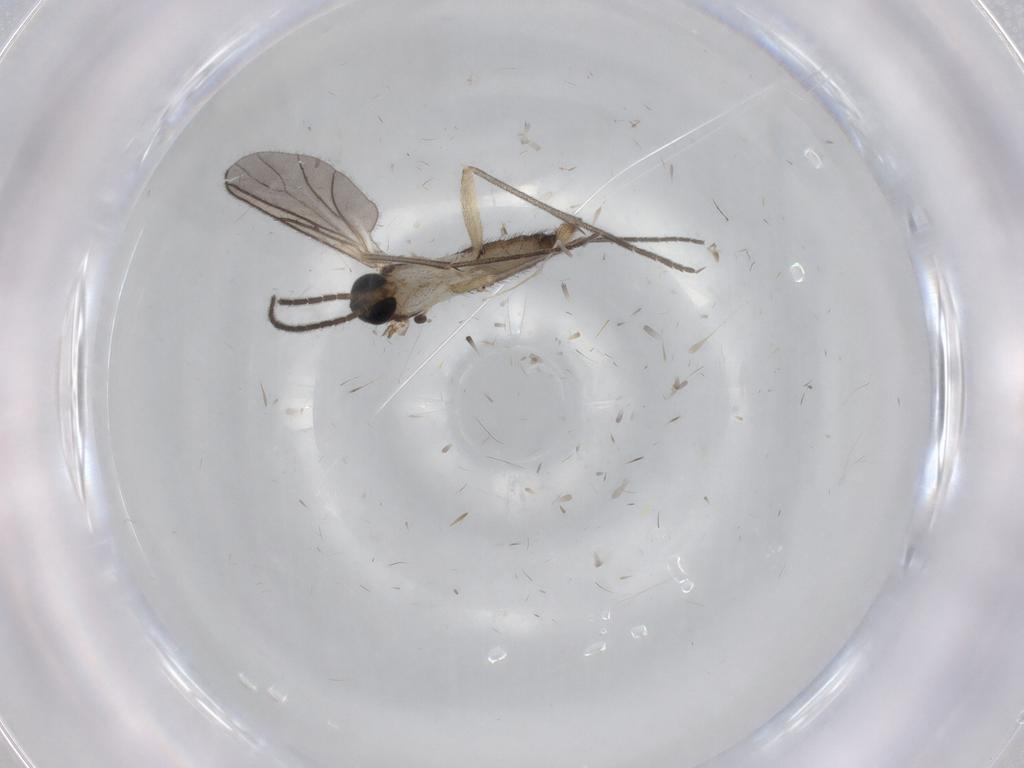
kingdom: Animalia
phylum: Arthropoda
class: Insecta
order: Diptera
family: Sciaridae
